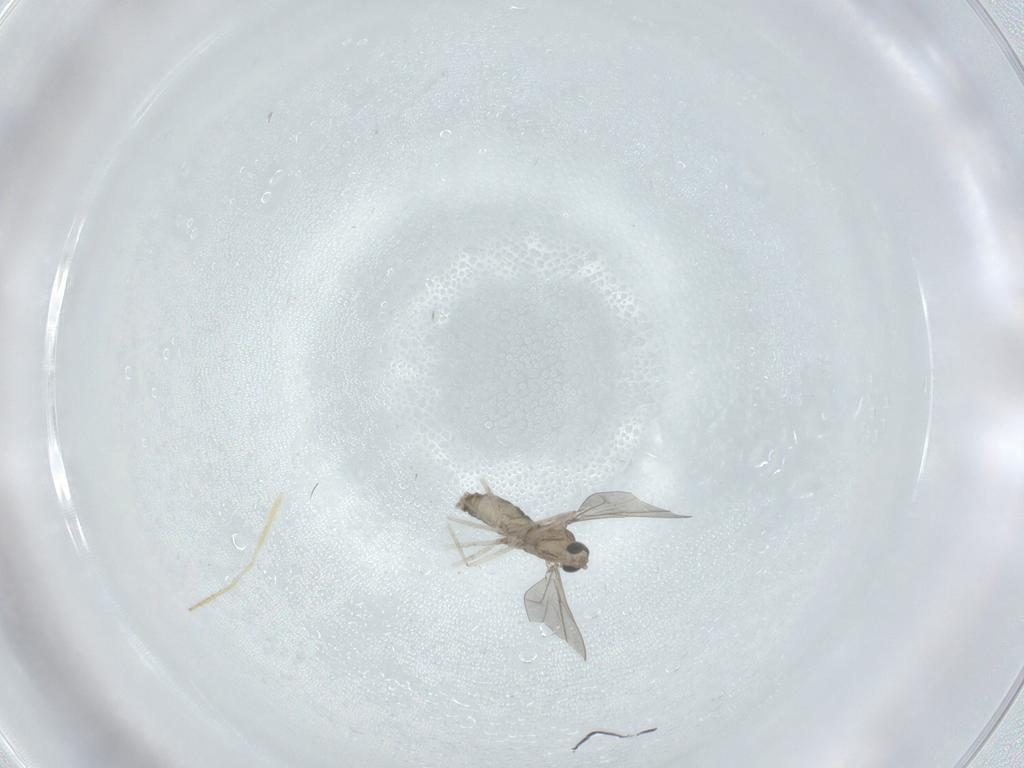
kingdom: Animalia
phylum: Arthropoda
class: Insecta
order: Diptera
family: Cecidomyiidae
